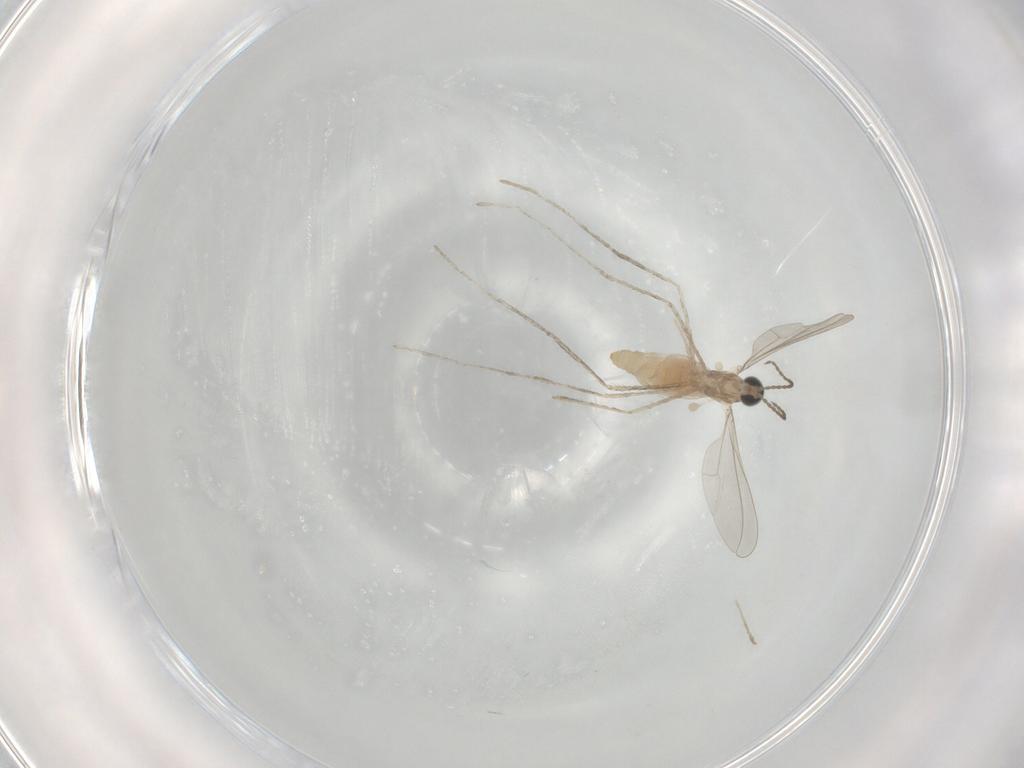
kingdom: Animalia
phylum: Arthropoda
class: Insecta
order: Diptera
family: Cecidomyiidae
